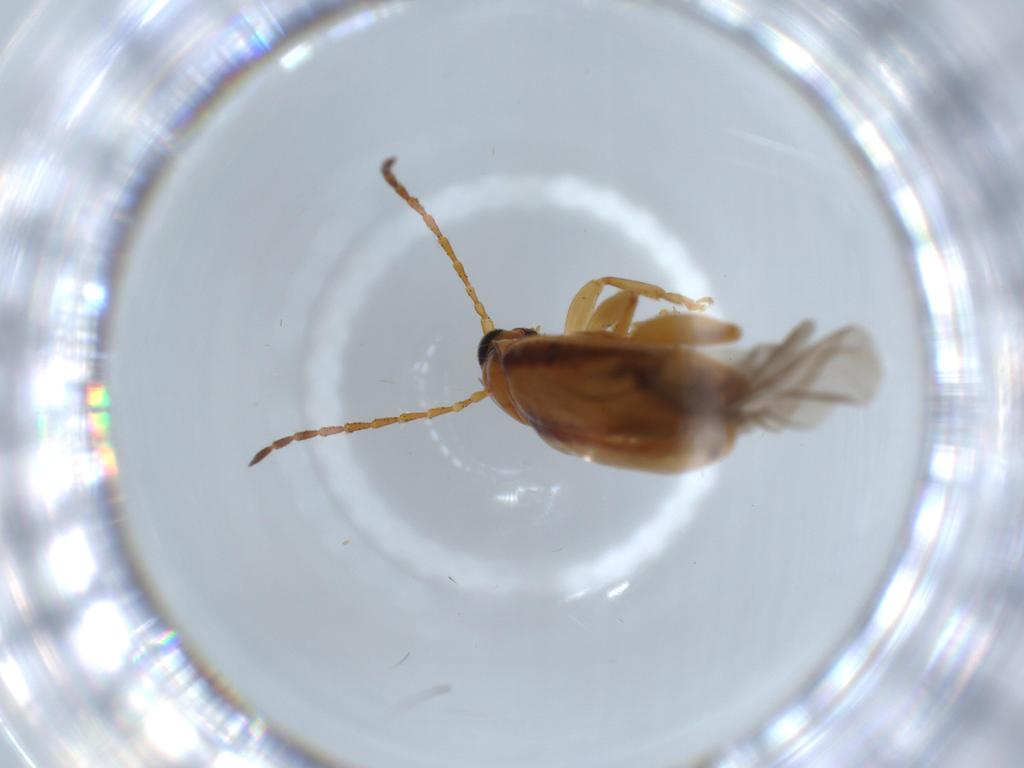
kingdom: Animalia
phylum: Arthropoda
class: Insecta
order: Coleoptera
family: Chrysomelidae
